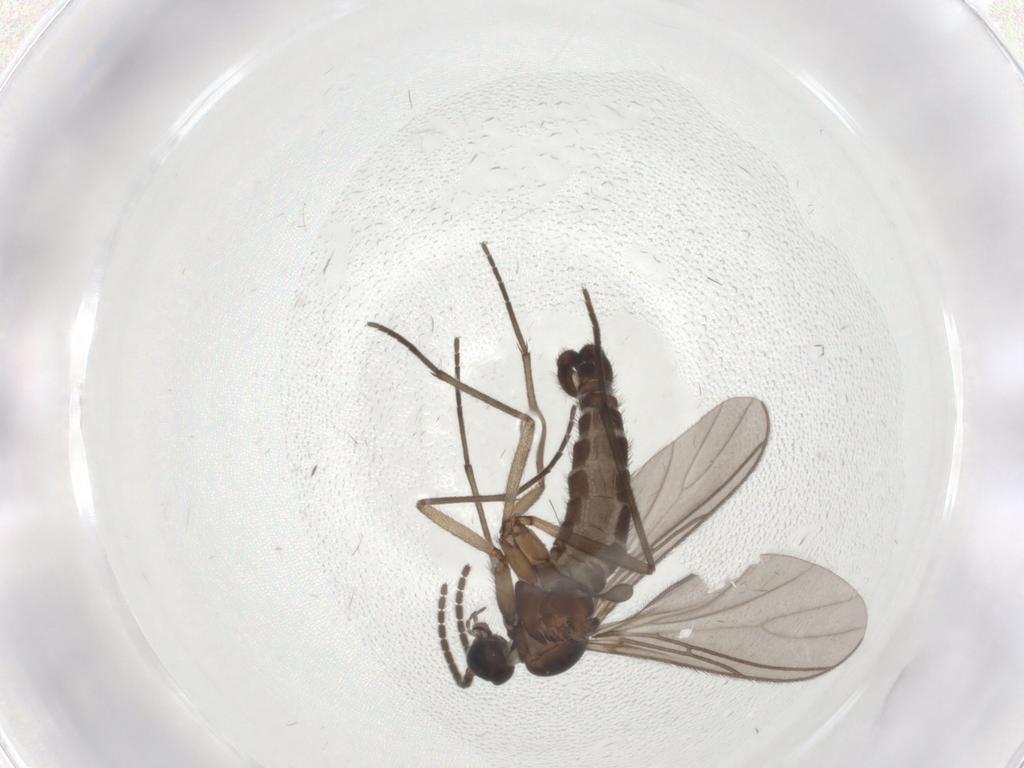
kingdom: Animalia
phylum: Arthropoda
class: Insecta
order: Diptera
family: Sciaridae
